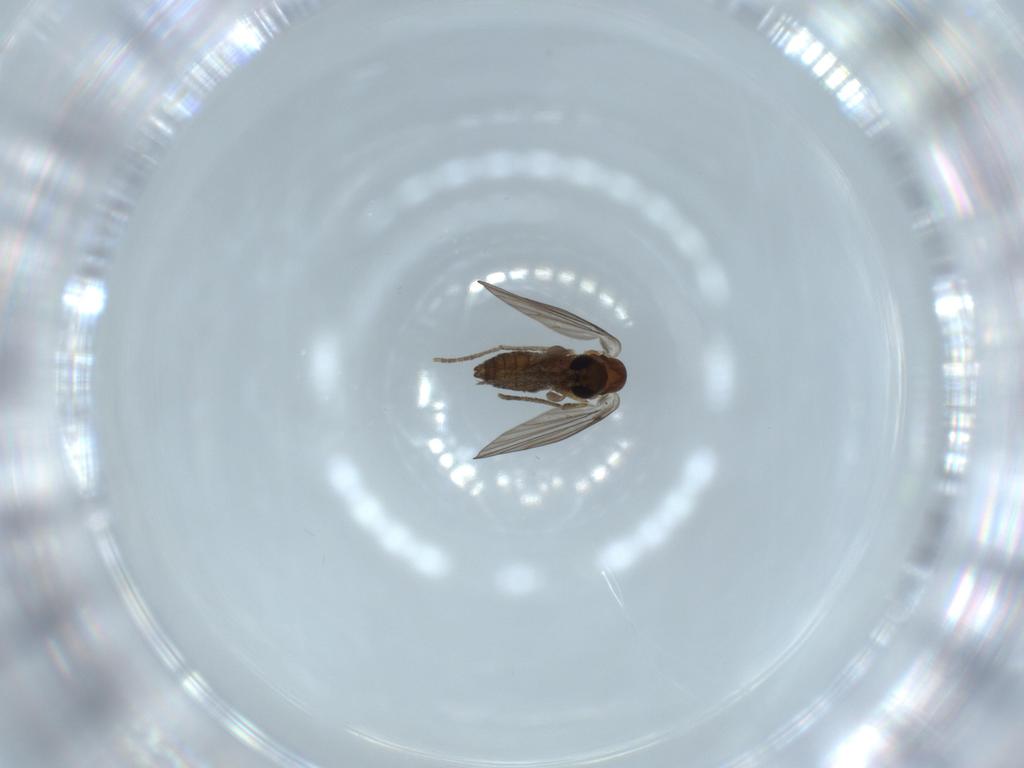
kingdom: Animalia
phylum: Arthropoda
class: Insecta
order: Diptera
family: Psychodidae
